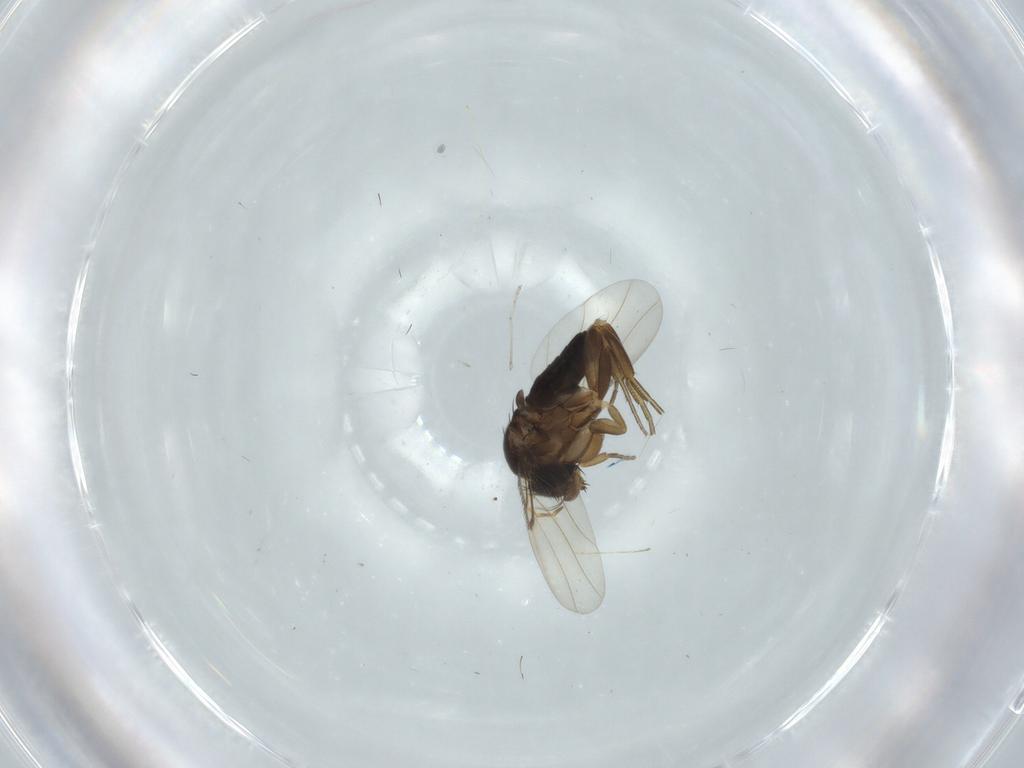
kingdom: Animalia
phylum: Arthropoda
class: Insecta
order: Diptera
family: Cecidomyiidae
